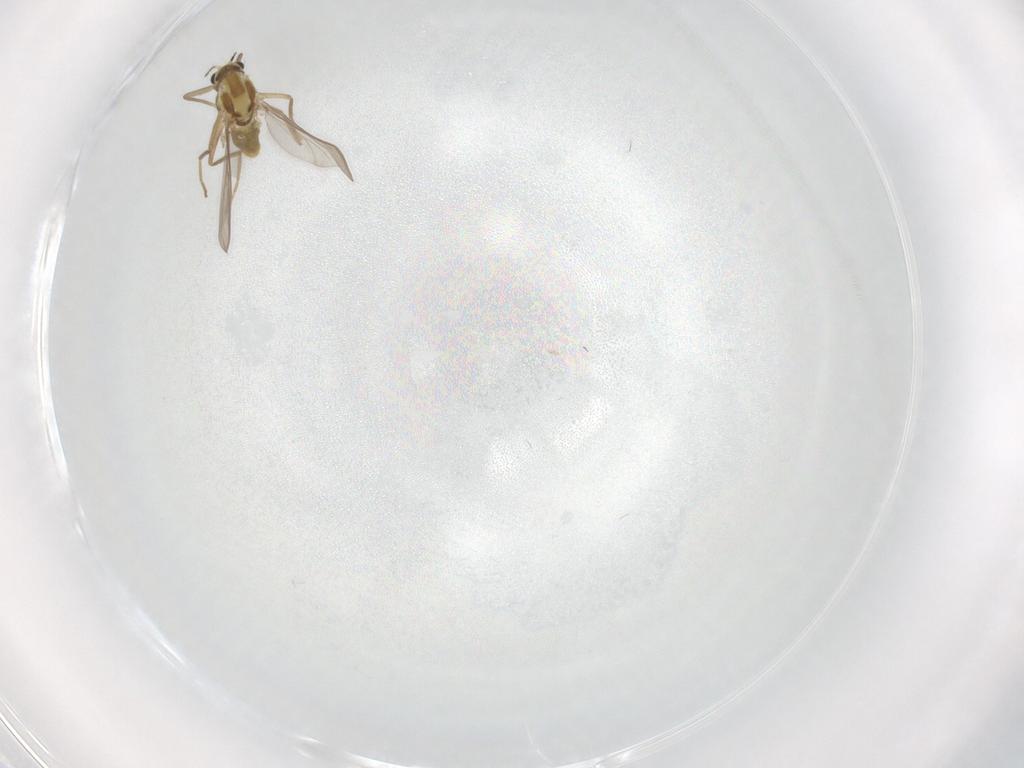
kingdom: Animalia
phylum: Arthropoda
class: Insecta
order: Diptera
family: Chironomidae
